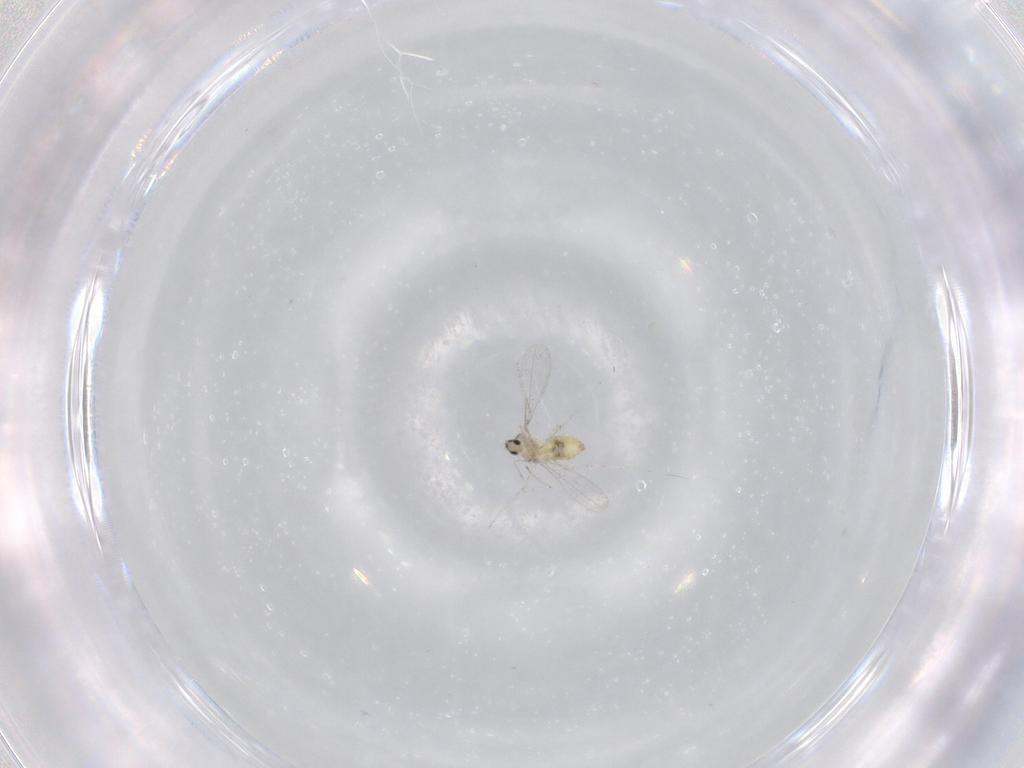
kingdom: Animalia
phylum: Arthropoda
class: Insecta
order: Diptera
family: Cecidomyiidae
